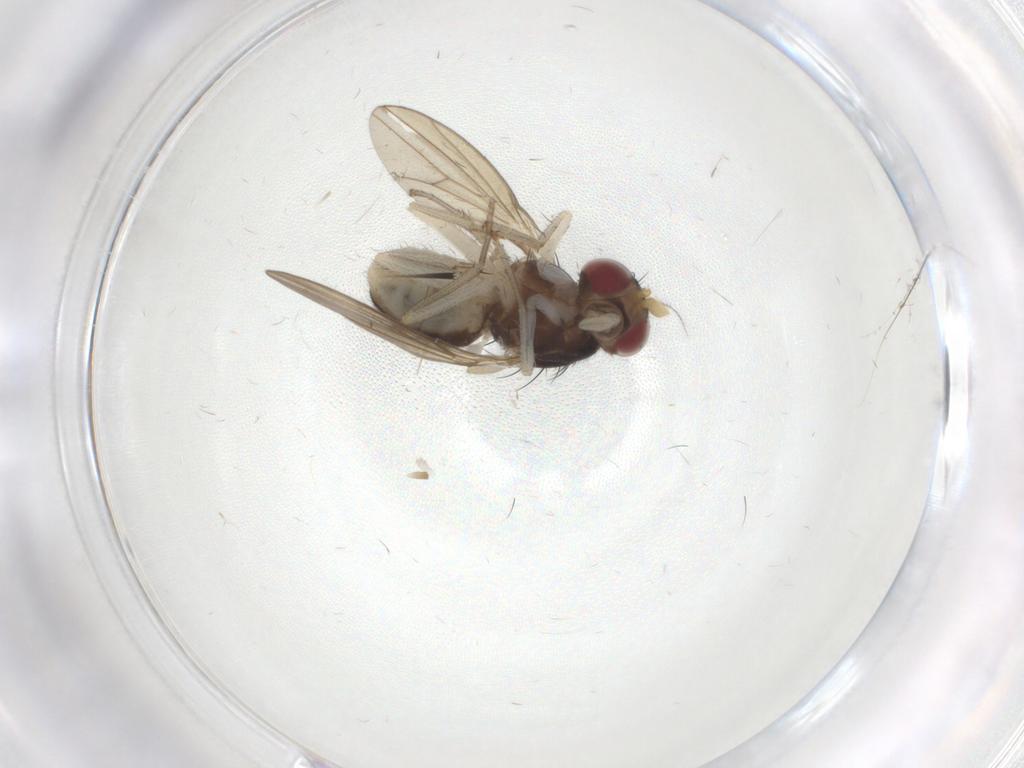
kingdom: Animalia
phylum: Arthropoda
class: Insecta
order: Diptera
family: Lauxaniidae
